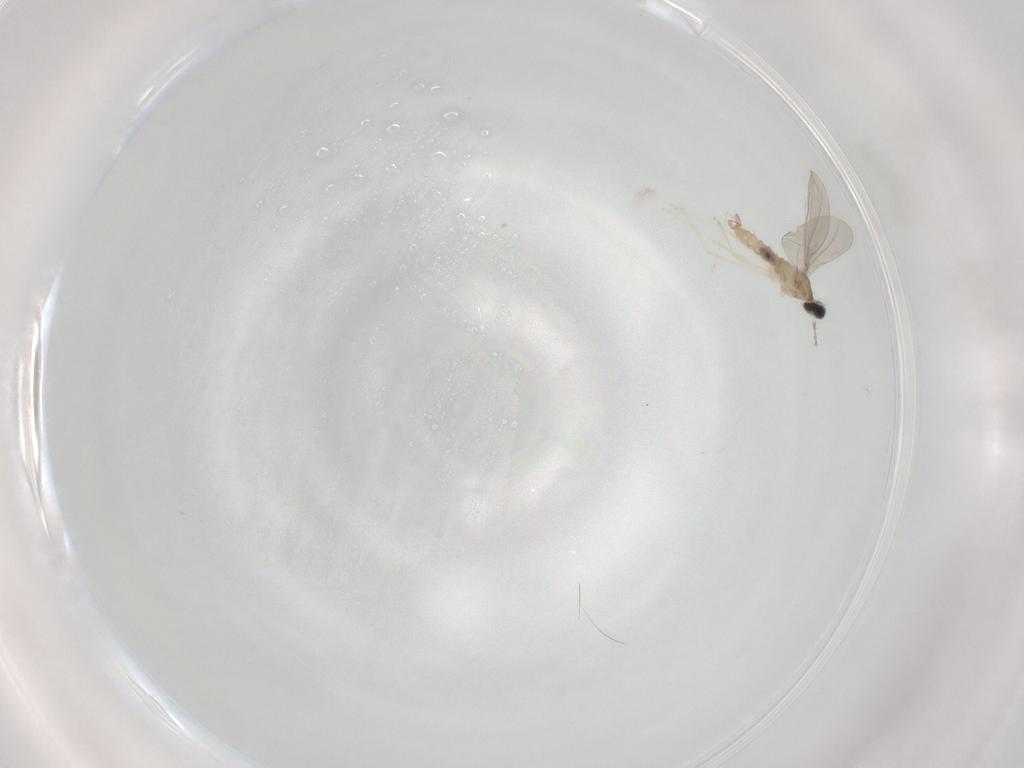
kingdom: Animalia
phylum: Arthropoda
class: Insecta
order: Diptera
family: Cecidomyiidae
